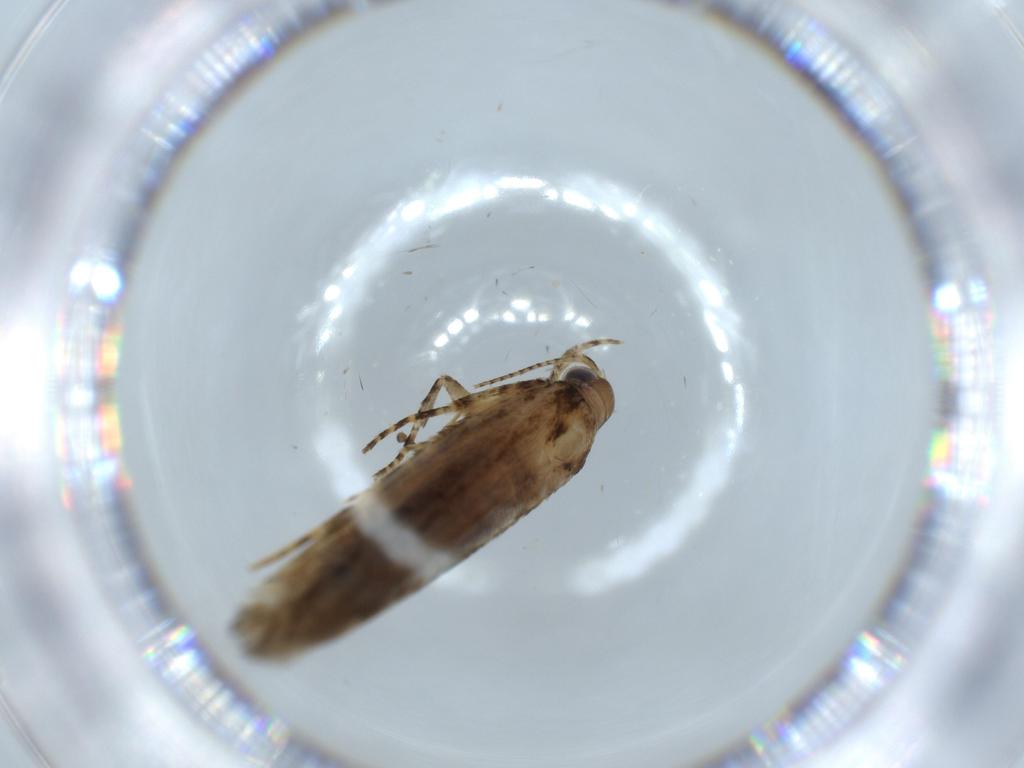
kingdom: Animalia
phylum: Arthropoda
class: Insecta
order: Lepidoptera
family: Gelechiidae
